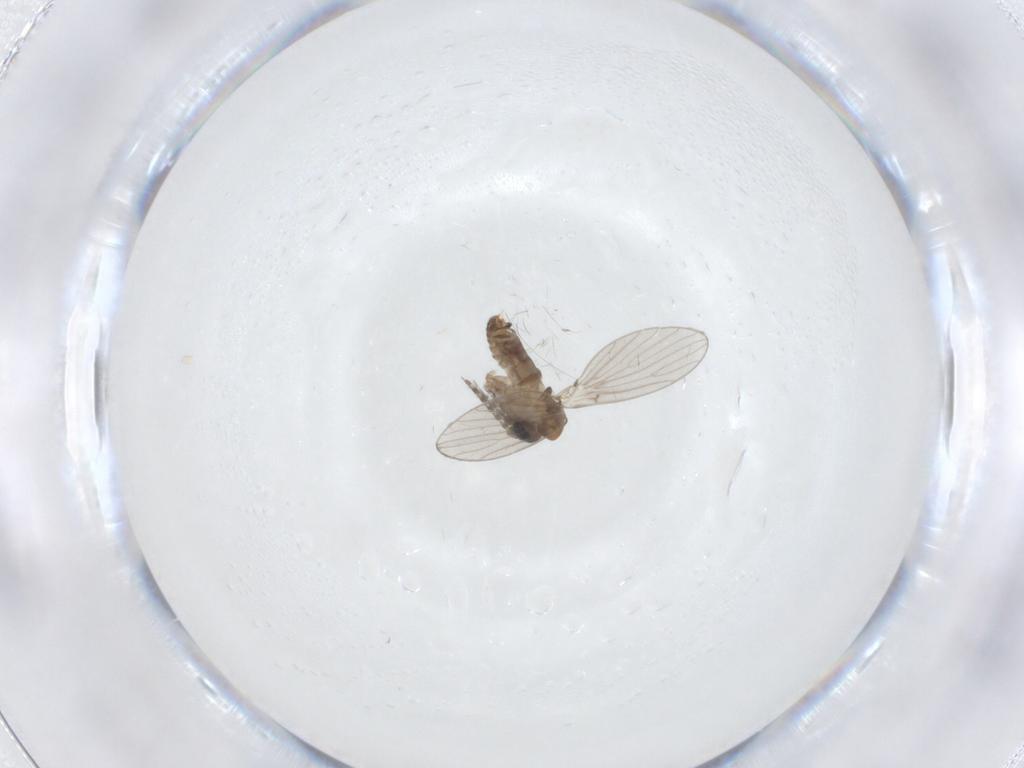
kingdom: Animalia
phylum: Arthropoda
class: Insecta
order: Diptera
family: Psychodidae
